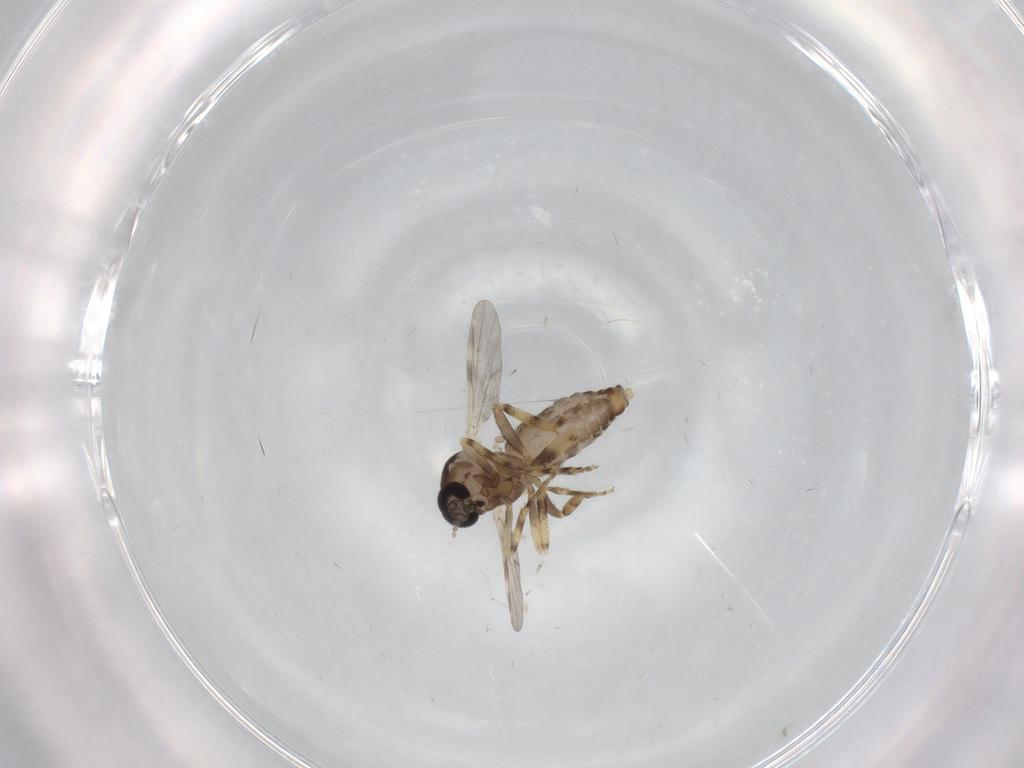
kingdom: Animalia
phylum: Arthropoda
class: Insecta
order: Diptera
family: Ceratopogonidae
